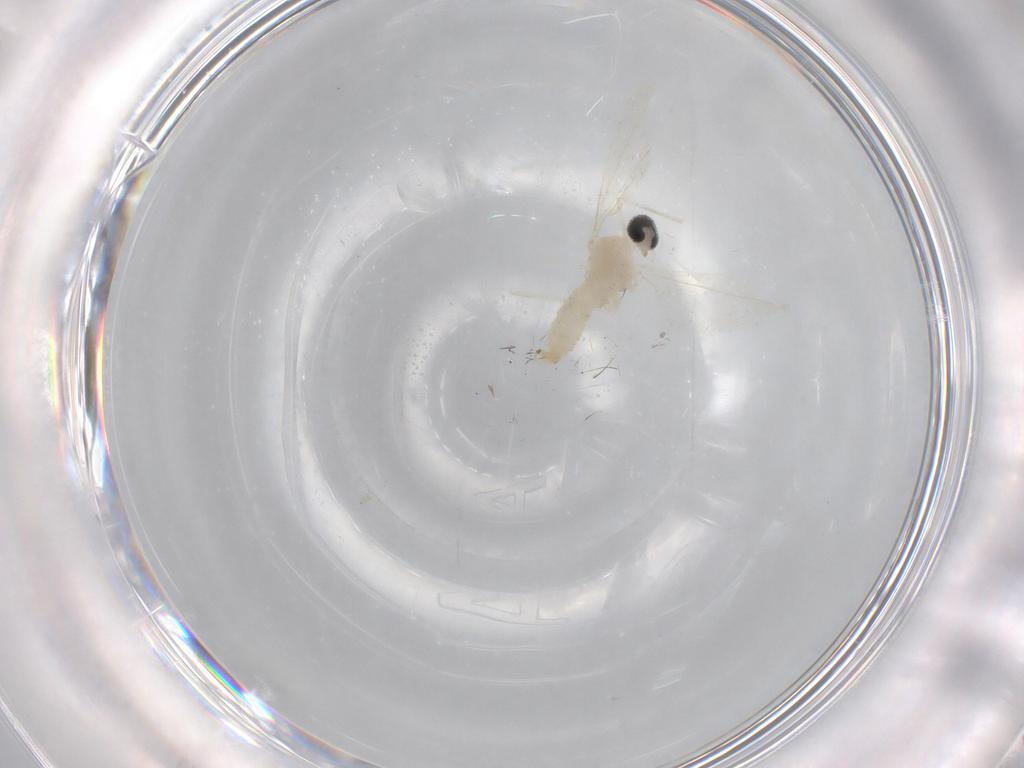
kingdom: Animalia
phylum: Arthropoda
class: Insecta
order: Diptera
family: Cecidomyiidae
